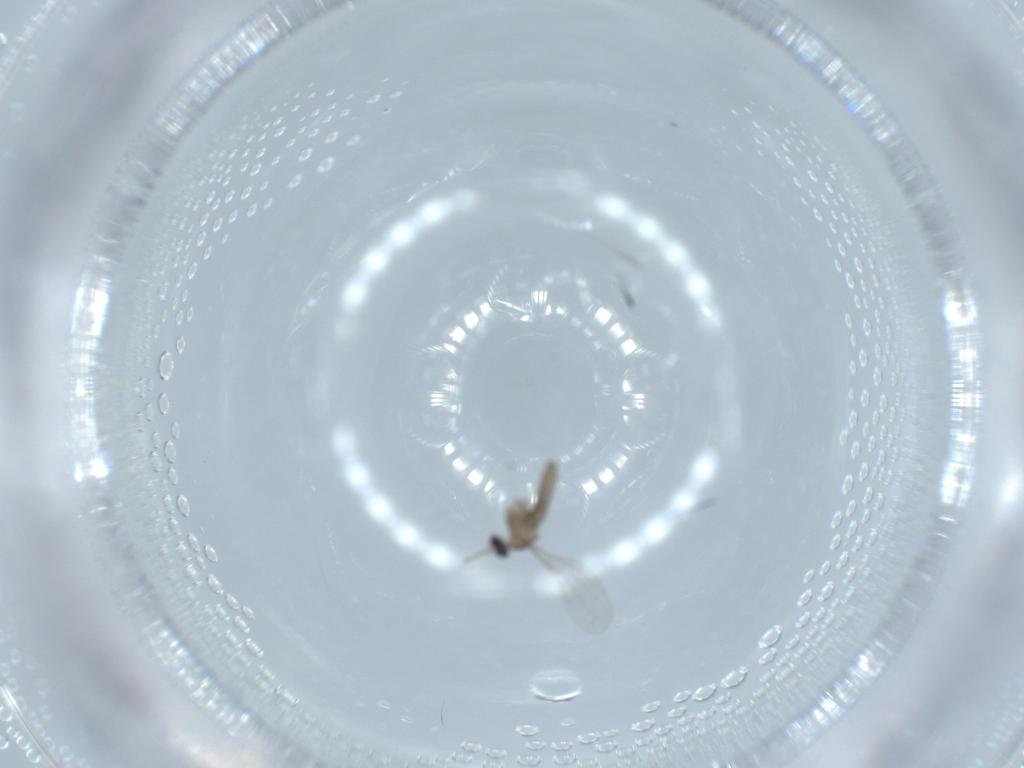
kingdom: Animalia
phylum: Arthropoda
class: Insecta
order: Diptera
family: Cecidomyiidae
